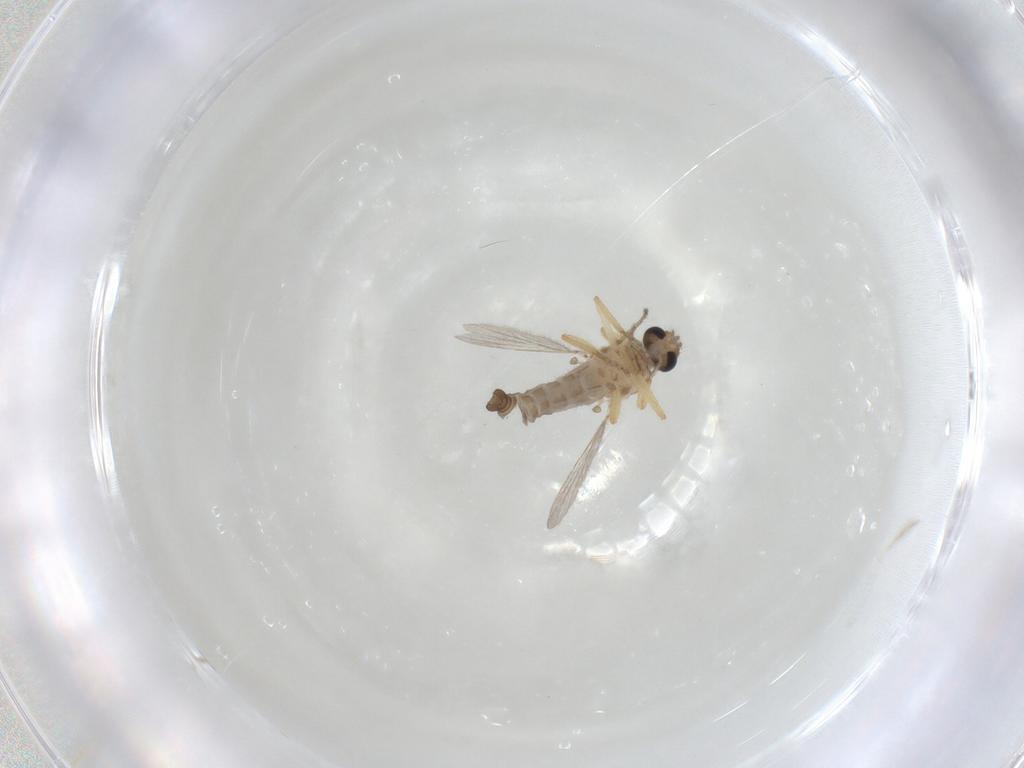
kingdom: Animalia
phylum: Arthropoda
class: Insecta
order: Diptera
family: Ceratopogonidae
